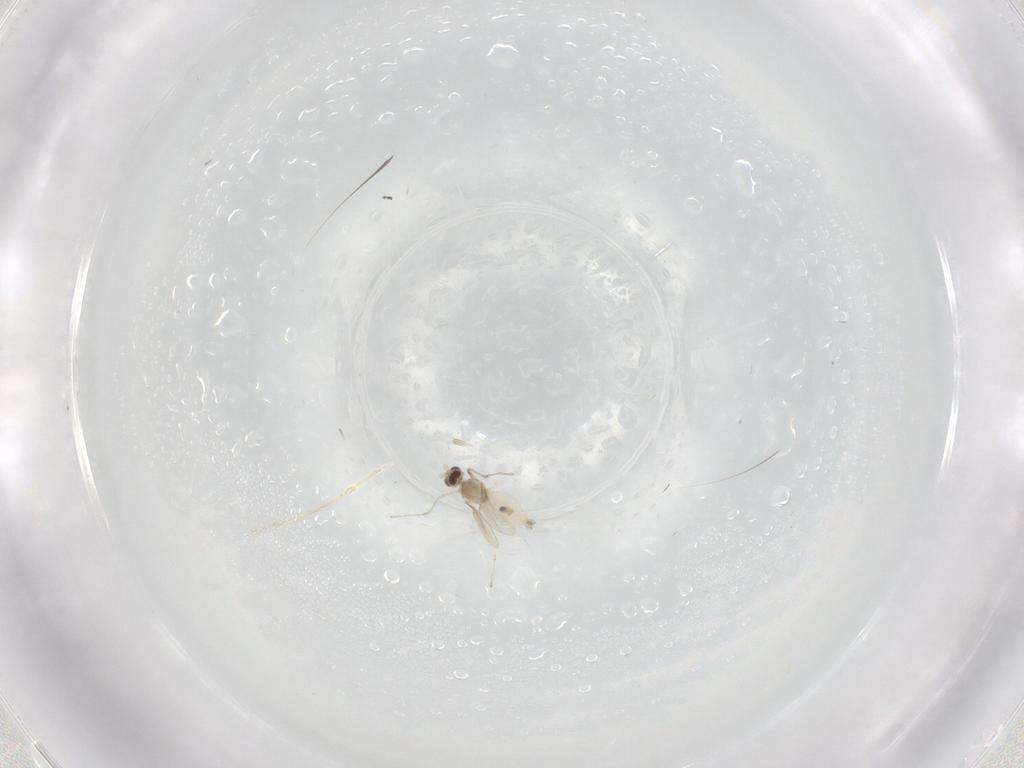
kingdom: Animalia
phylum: Arthropoda
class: Insecta
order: Diptera
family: Cecidomyiidae
